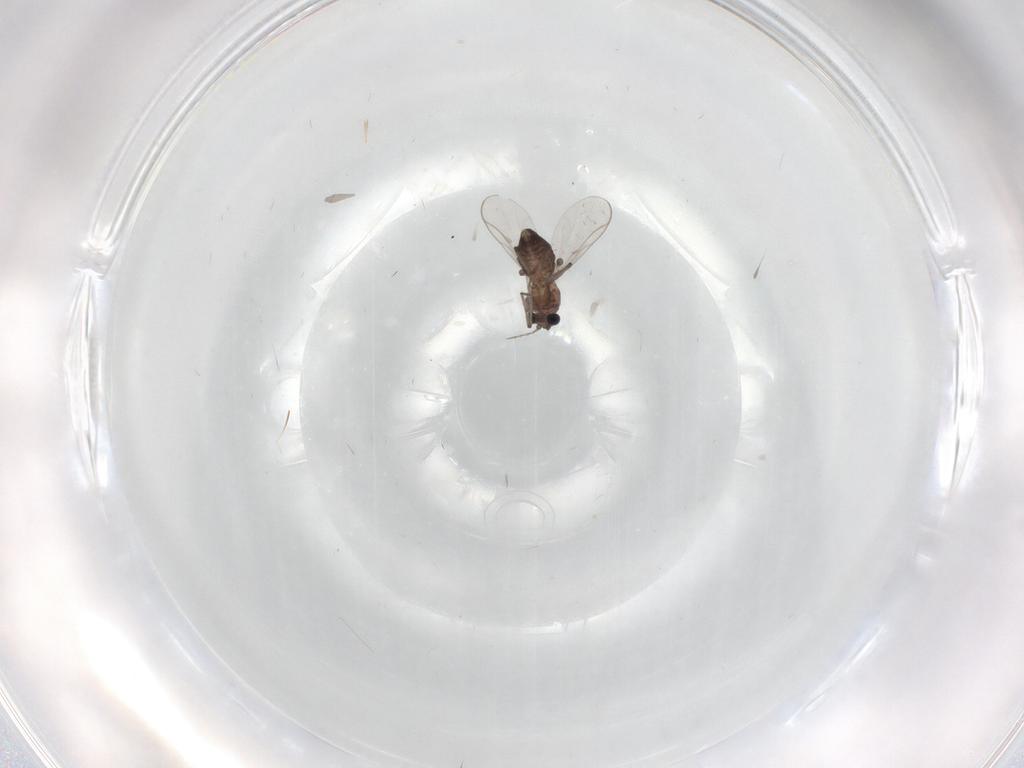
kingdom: Animalia
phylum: Arthropoda
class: Insecta
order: Diptera
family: Chironomidae
